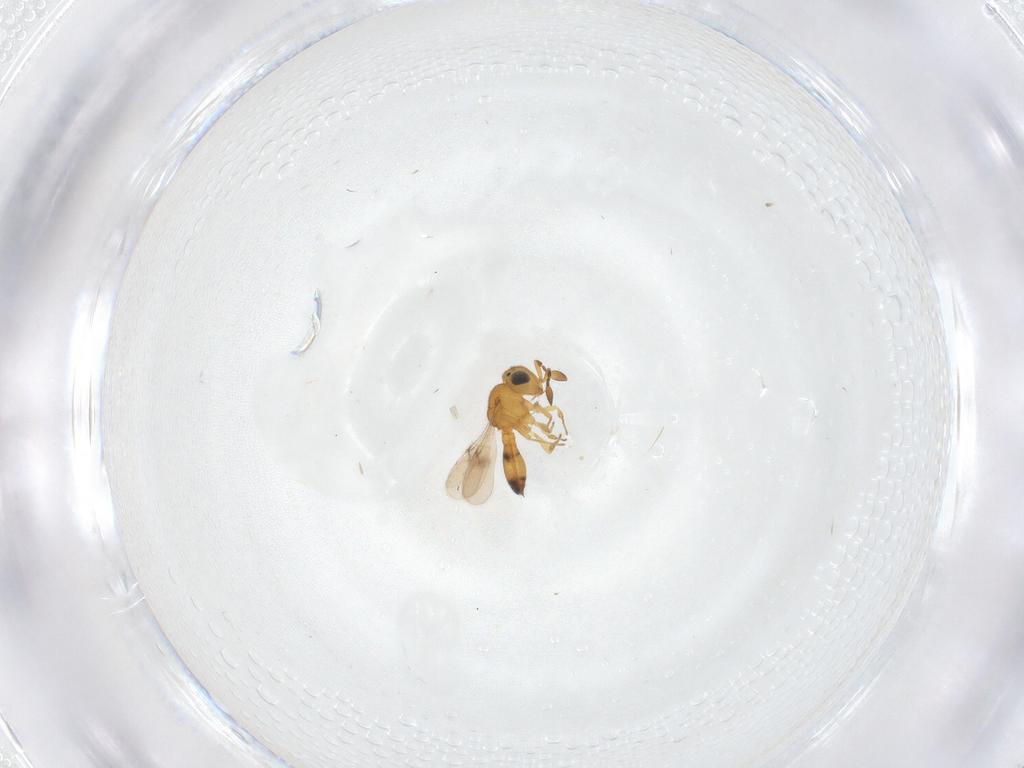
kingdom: Animalia
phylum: Arthropoda
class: Insecta
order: Hymenoptera
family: Scelionidae
